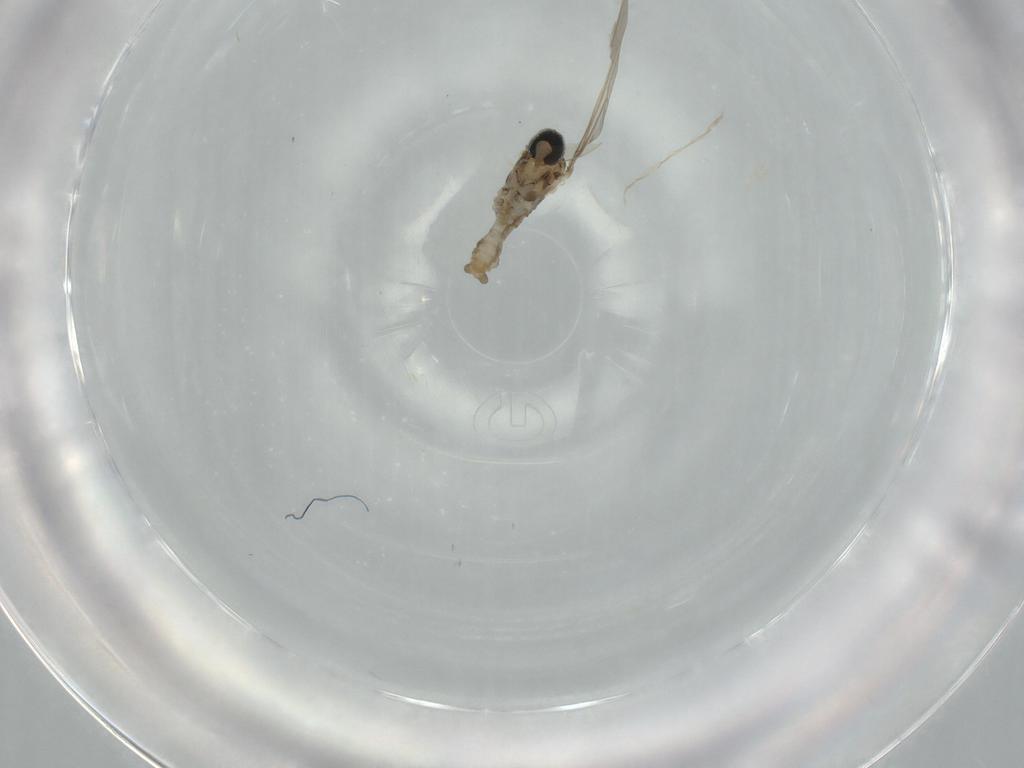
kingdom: Animalia
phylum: Arthropoda
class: Insecta
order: Diptera
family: Cecidomyiidae
